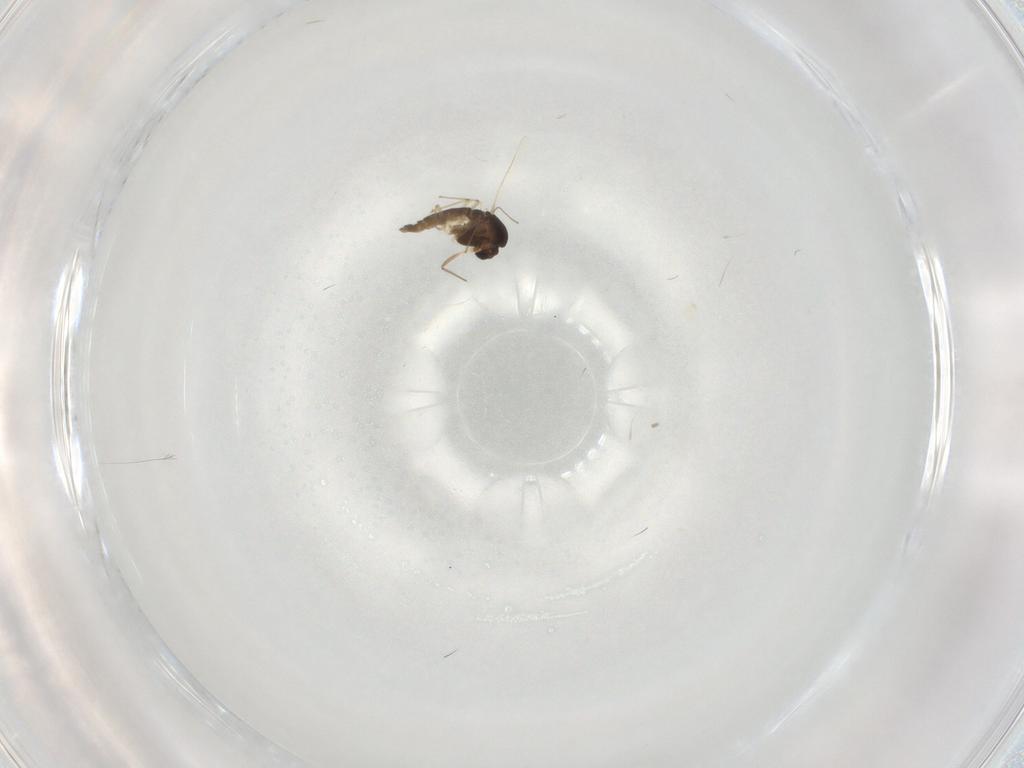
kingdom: Animalia
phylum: Arthropoda
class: Insecta
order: Diptera
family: Chironomidae
